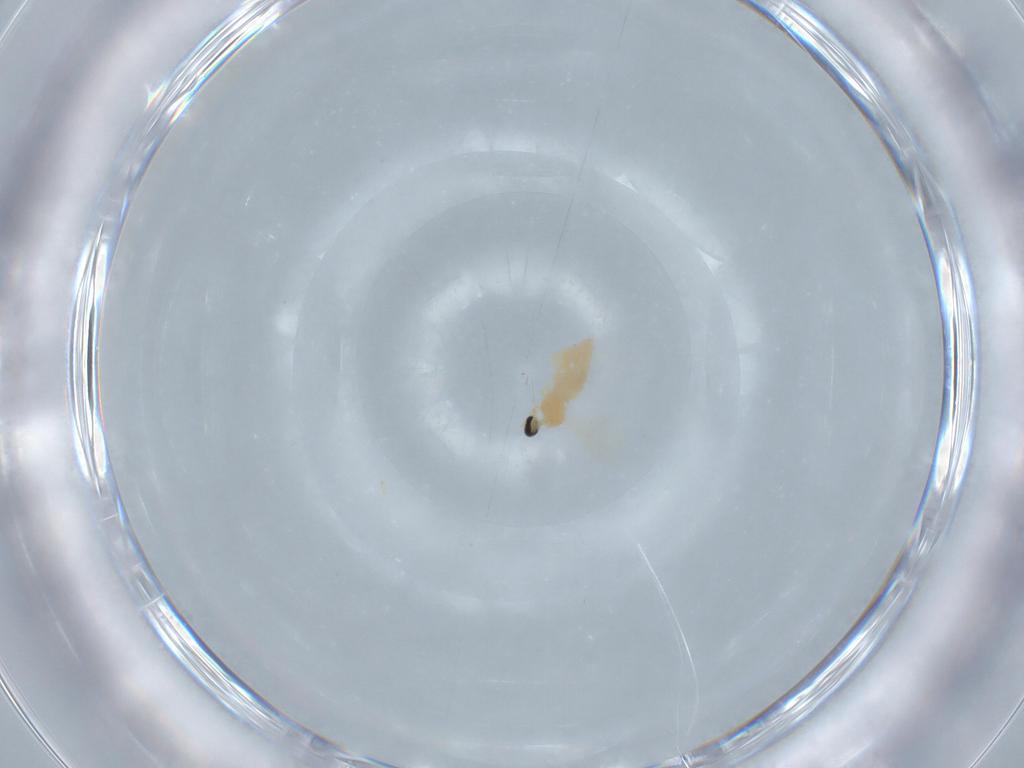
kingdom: Animalia
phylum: Arthropoda
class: Insecta
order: Diptera
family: Cecidomyiidae
